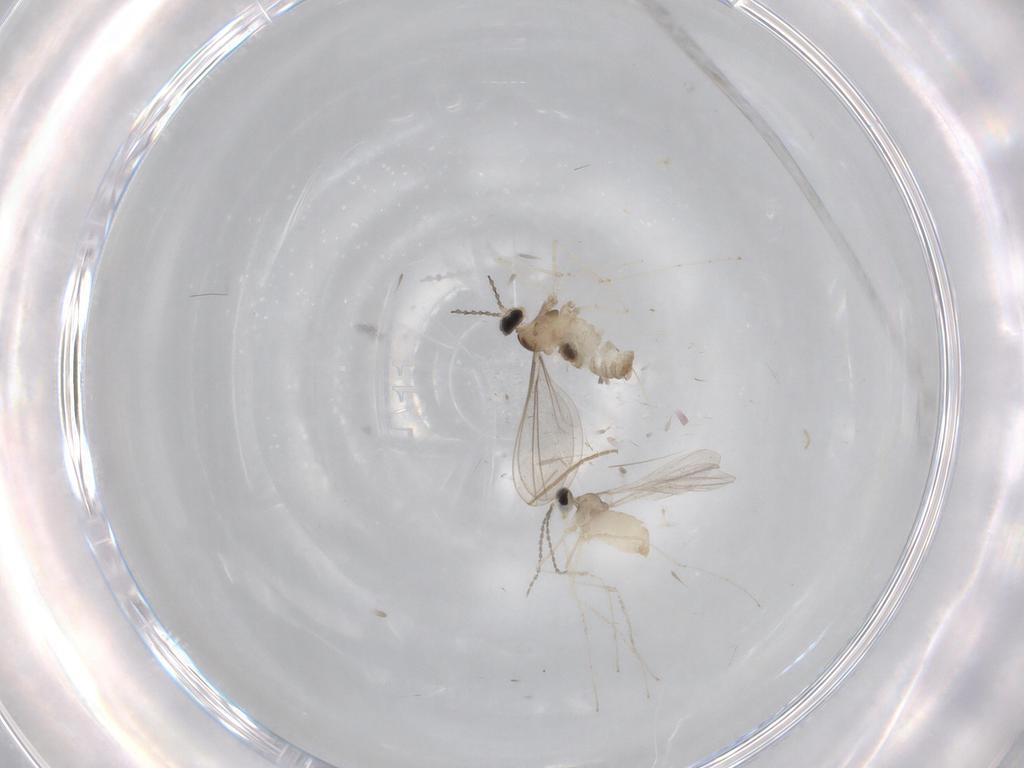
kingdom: Animalia
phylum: Arthropoda
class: Insecta
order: Diptera
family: Cecidomyiidae
